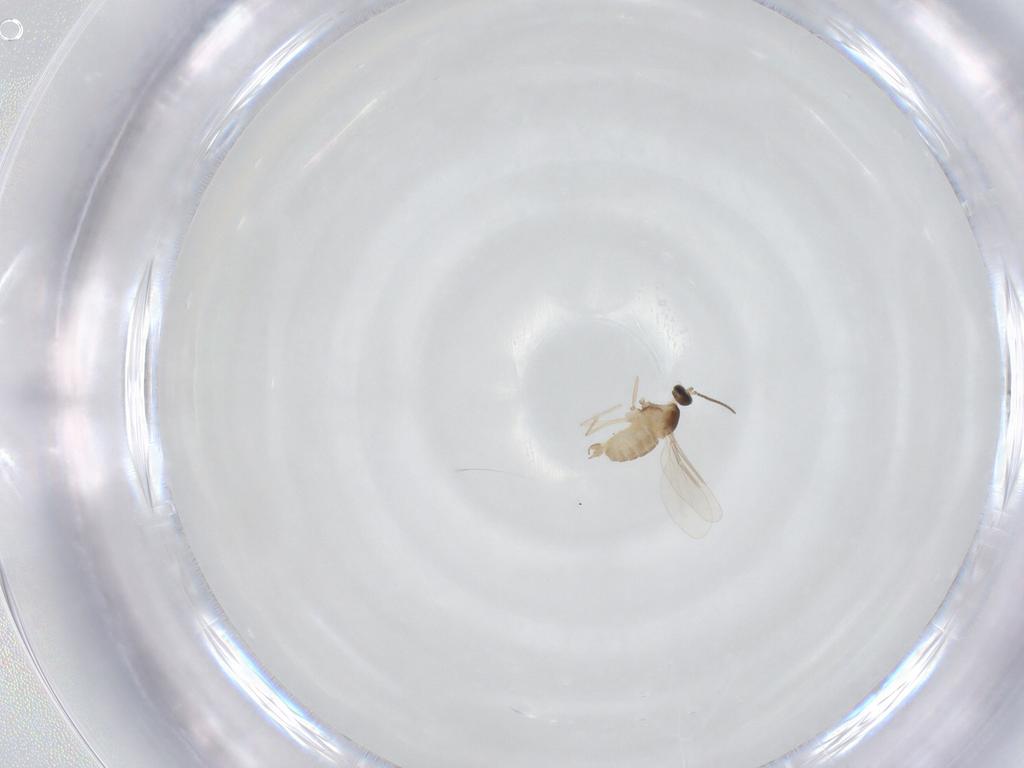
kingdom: Animalia
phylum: Arthropoda
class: Insecta
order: Diptera
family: Cecidomyiidae
